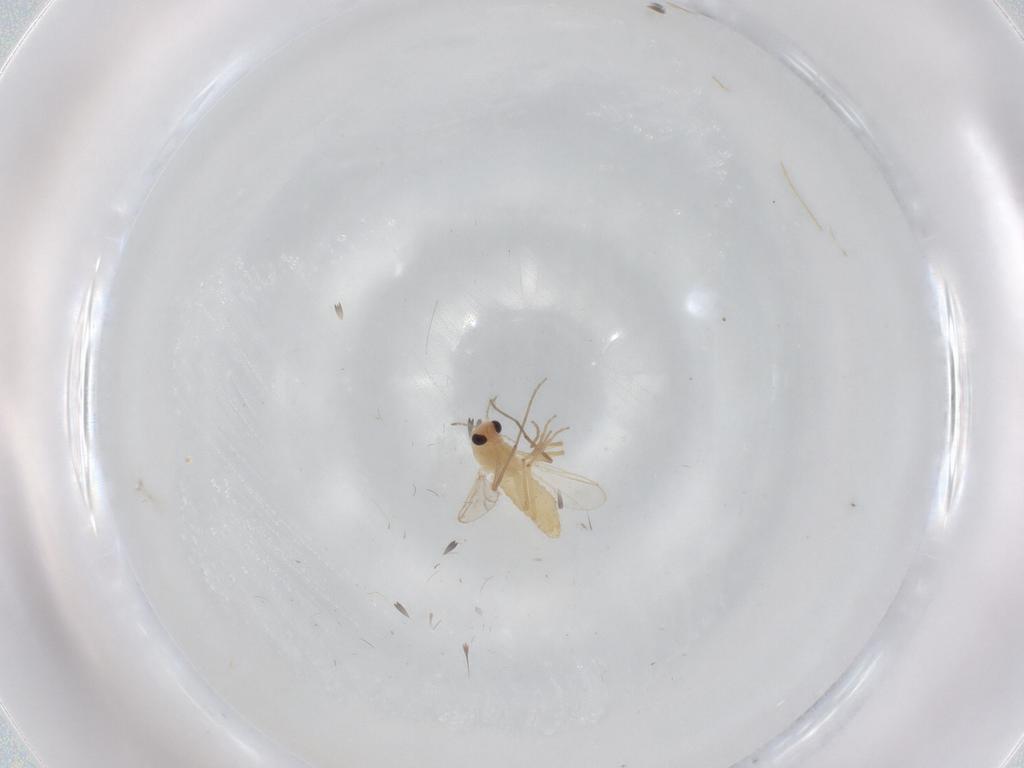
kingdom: Animalia
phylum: Arthropoda
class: Insecta
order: Diptera
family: Chironomidae
